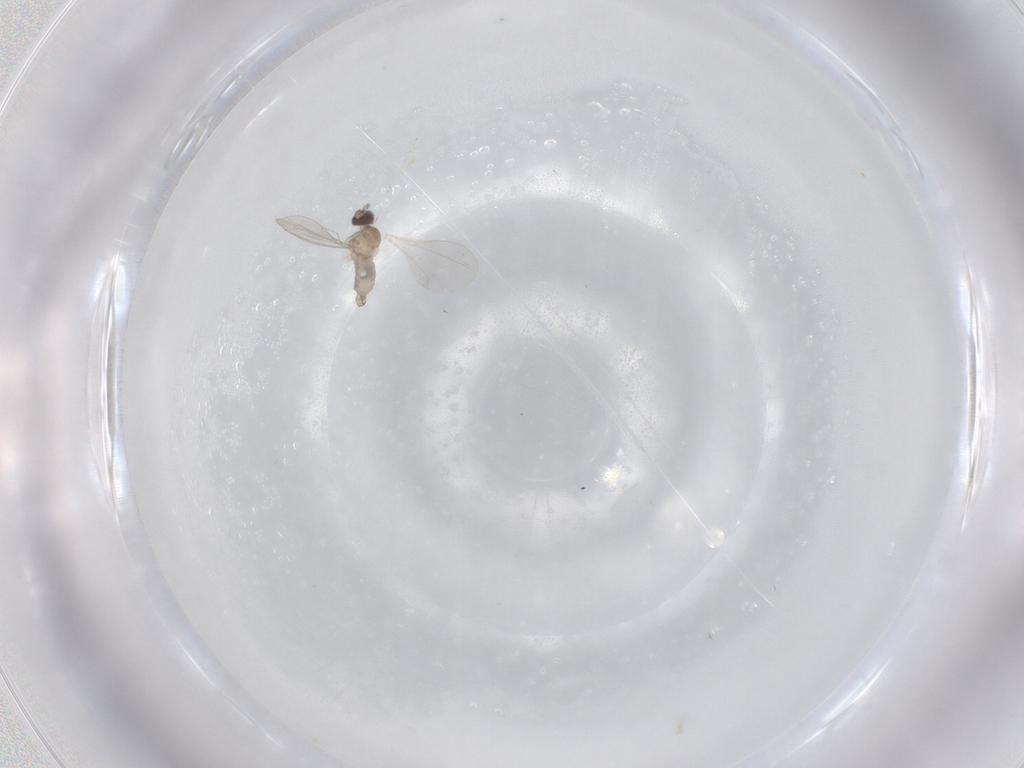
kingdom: Animalia
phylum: Arthropoda
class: Insecta
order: Diptera
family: Cecidomyiidae
